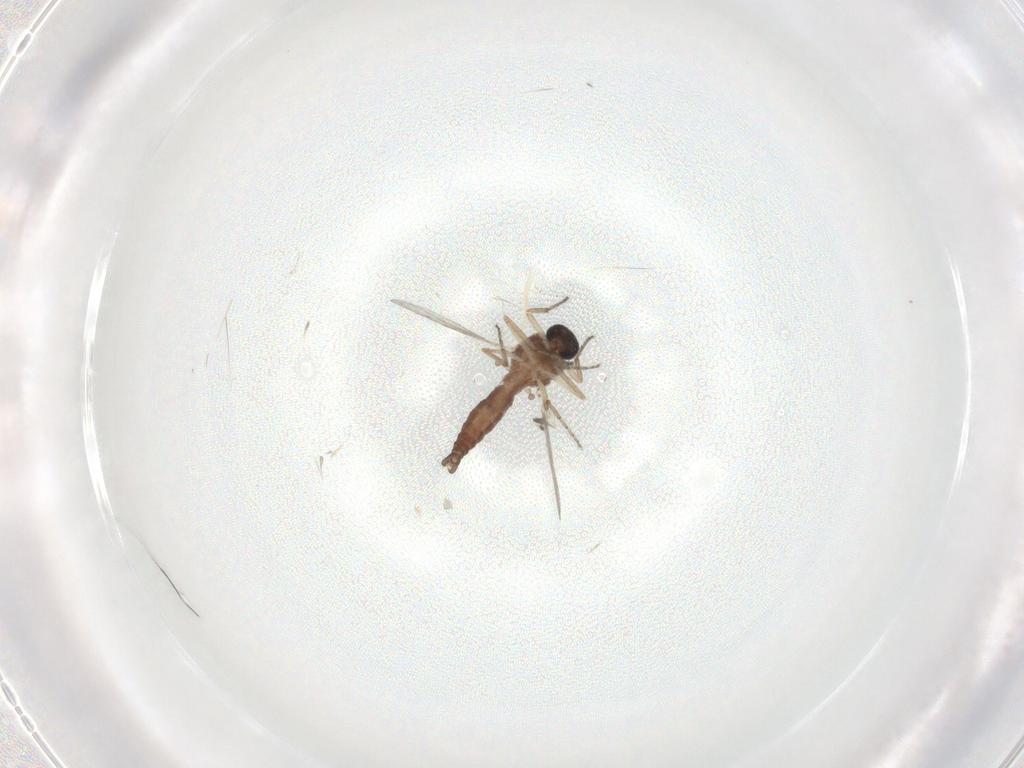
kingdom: Animalia
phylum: Arthropoda
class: Insecta
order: Diptera
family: Ceratopogonidae
